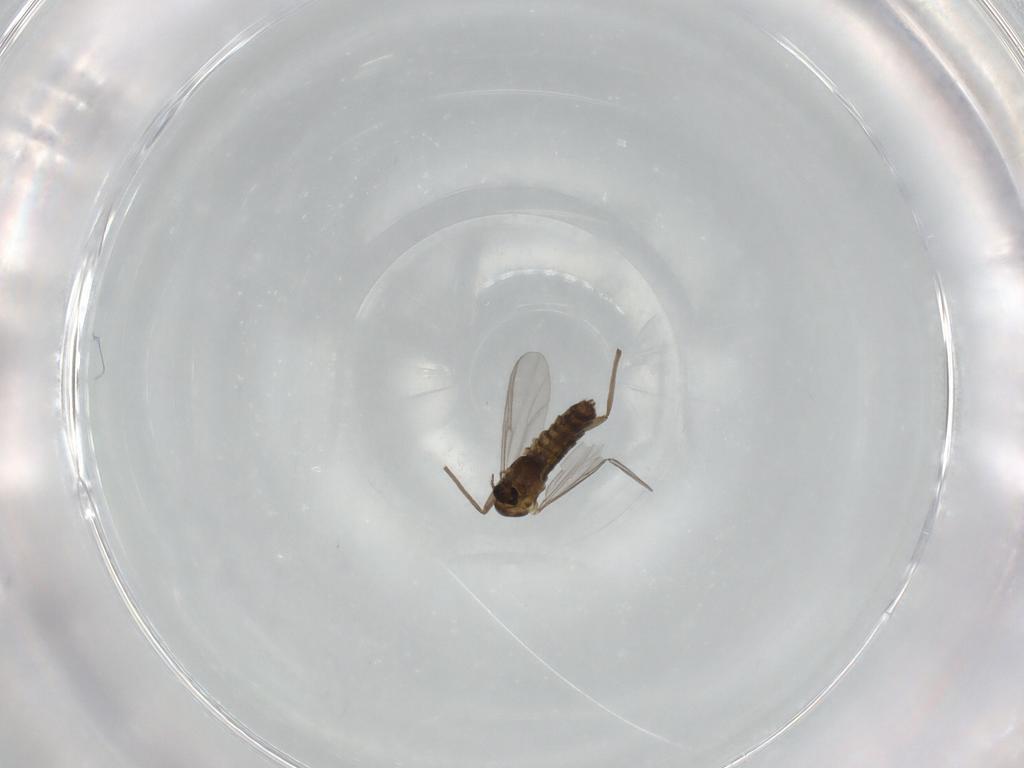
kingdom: Animalia
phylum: Arthropoda
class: Insecta
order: Diptera
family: Chironomidae
